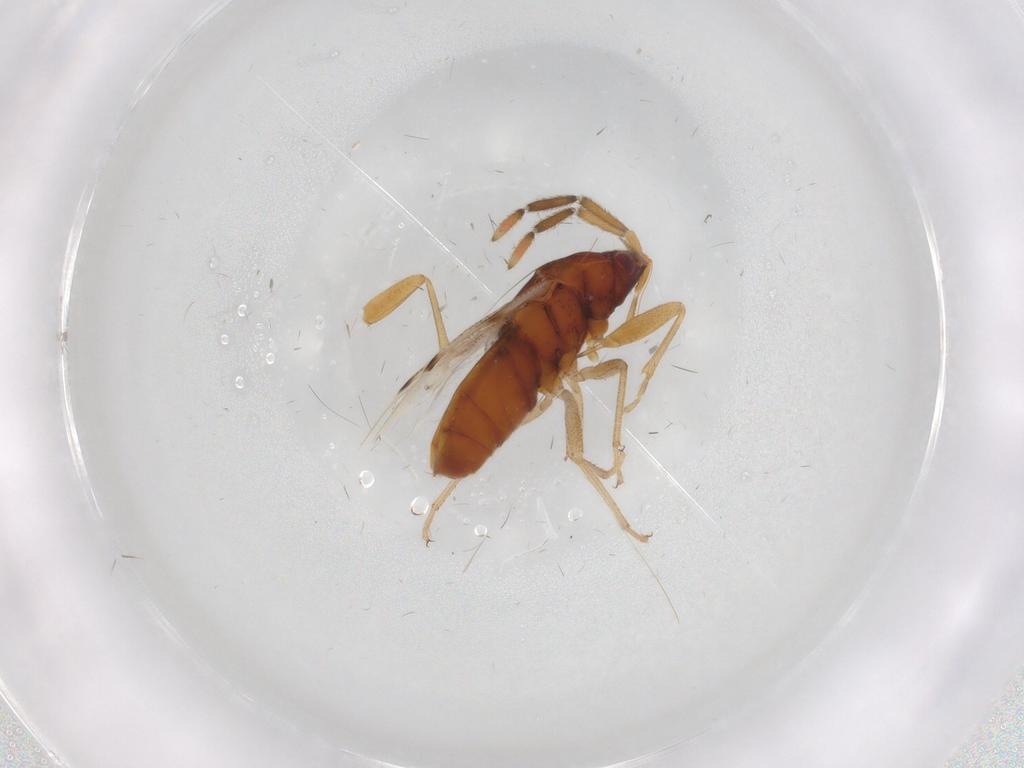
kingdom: Animalia
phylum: Arthropoda
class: Insecta
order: Hemiptera
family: Rhyparochromidae
